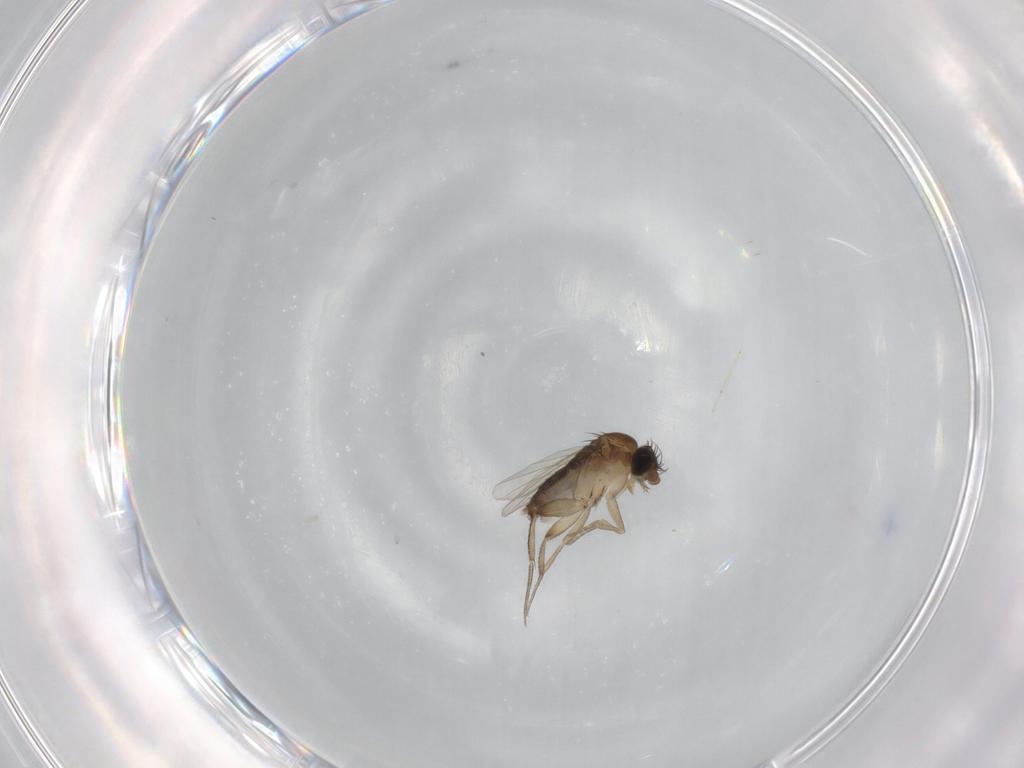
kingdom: Animalia
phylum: Arthropoda
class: Insecta
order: Diptera
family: Phoridae
